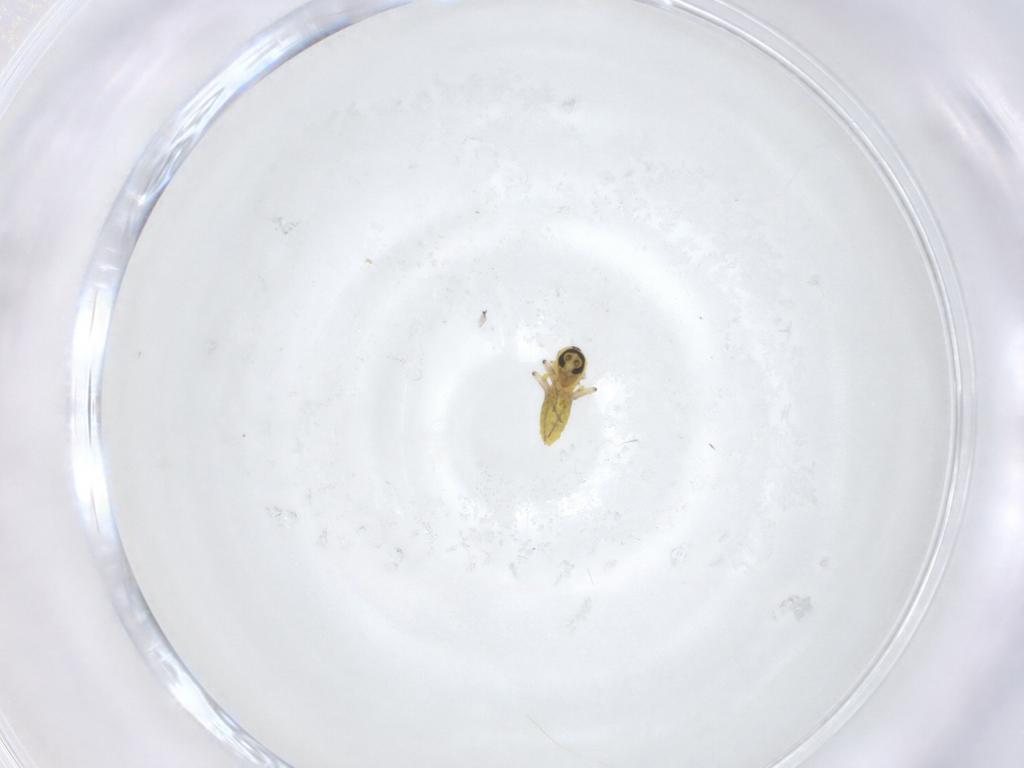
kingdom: Animalia
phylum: Arthropoda
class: Insecta
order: Diptera
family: Ceratopogonidae
